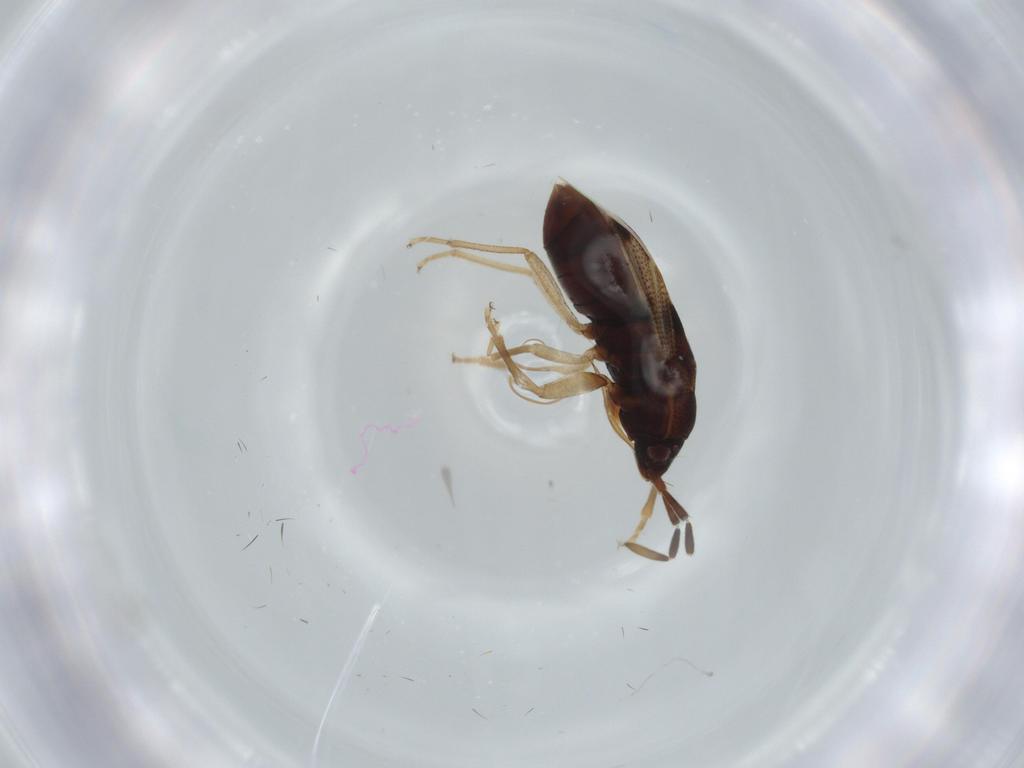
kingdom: Animalia
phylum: Arthropoda
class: Insecta
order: Hemiptera
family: Rhyparochromidae
